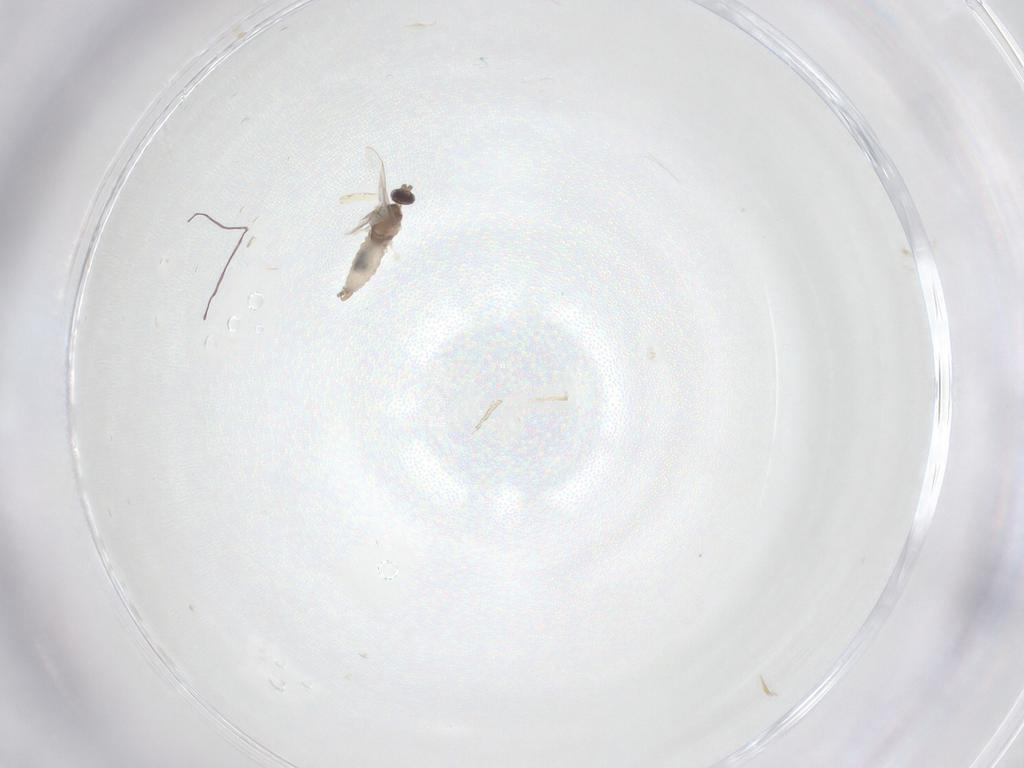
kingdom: Animalia
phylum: Arthropoda
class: Insecta
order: Diptera
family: Cecidomyiidae
